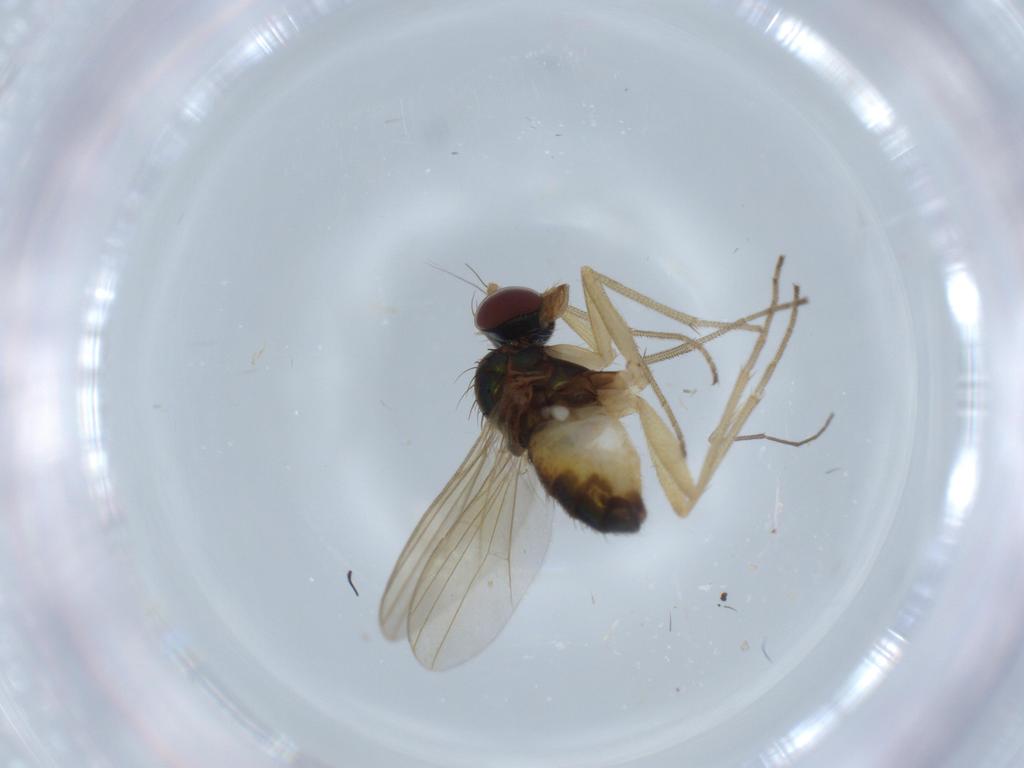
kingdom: Animalia
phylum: Arthropoda
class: Insecta
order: Diptera
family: Dolichopodidae
